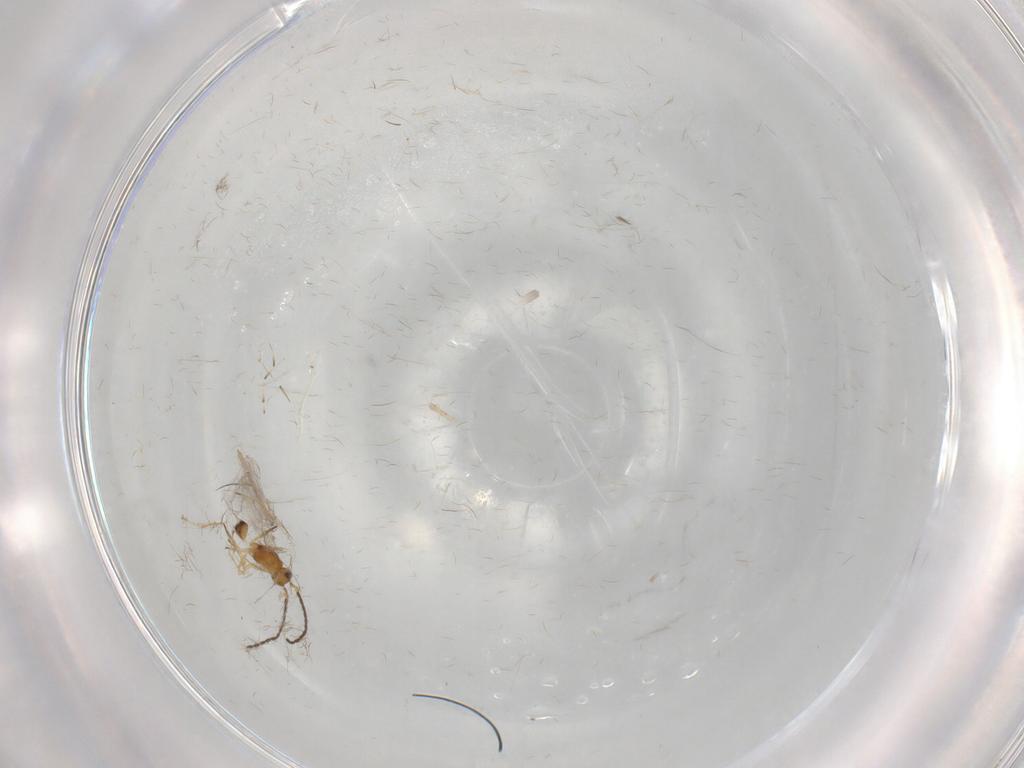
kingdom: Animalia
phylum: Arthropoda
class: Insecta
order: Hymenoptera
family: Mymaridae
